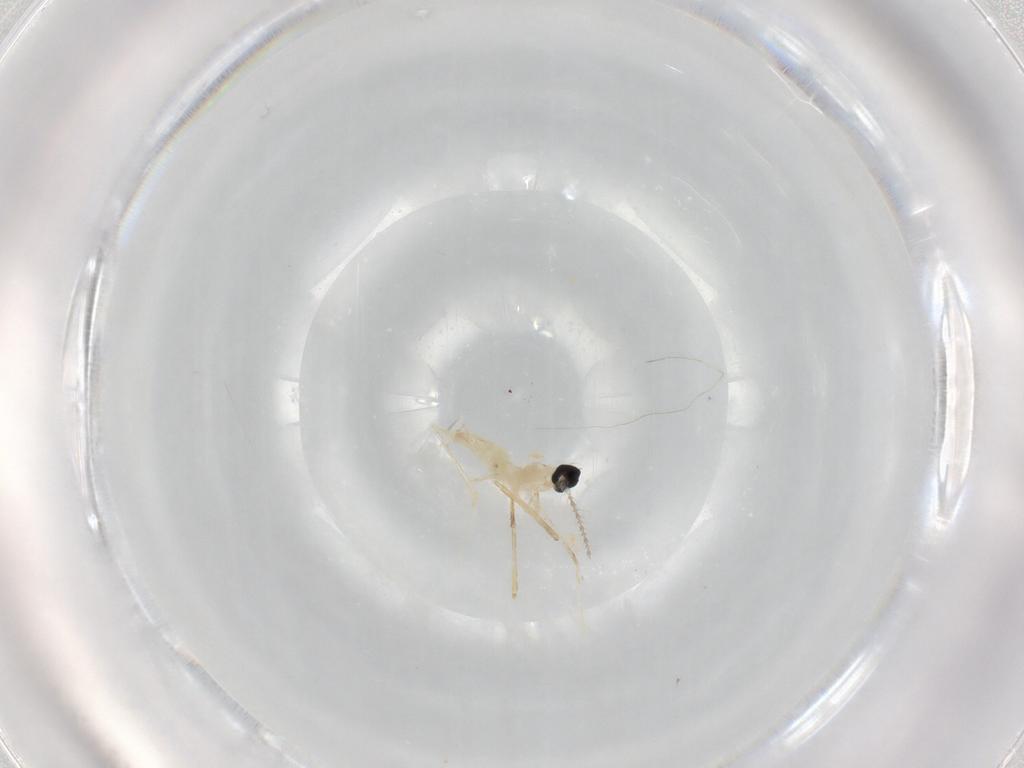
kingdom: Animalia
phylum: Arthropoda
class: Insecta
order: Diptera
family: Cecidomyiidae
